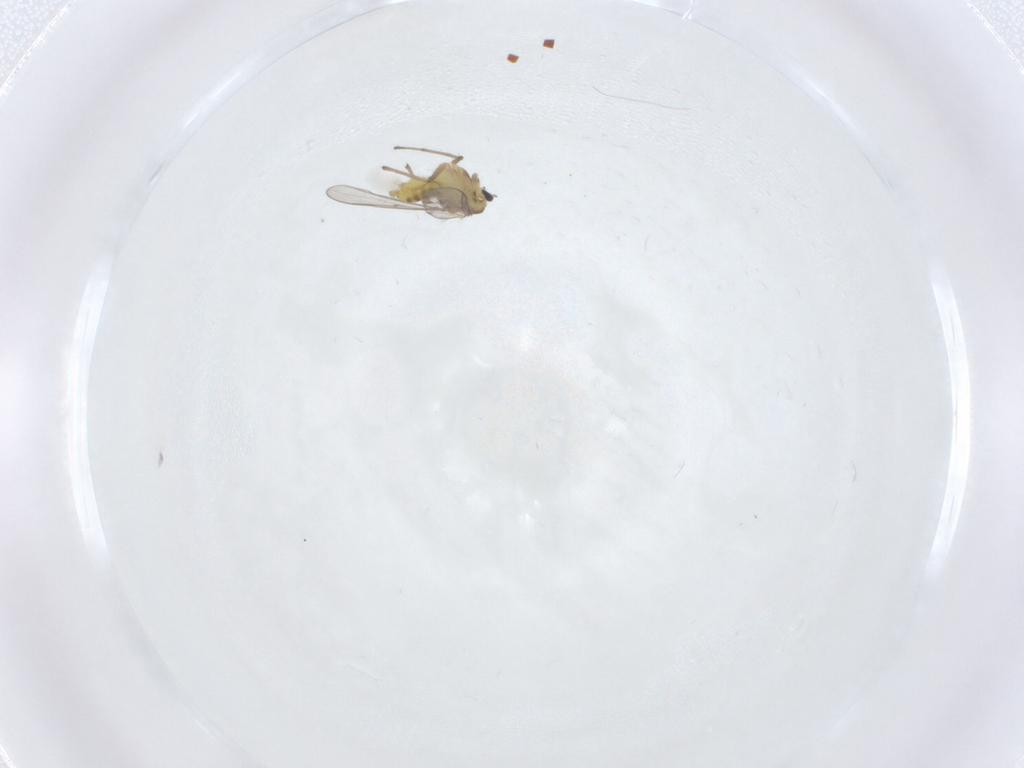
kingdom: Animalia
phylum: Arthropoda
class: Insecta
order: Diptera
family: Chironomidae
